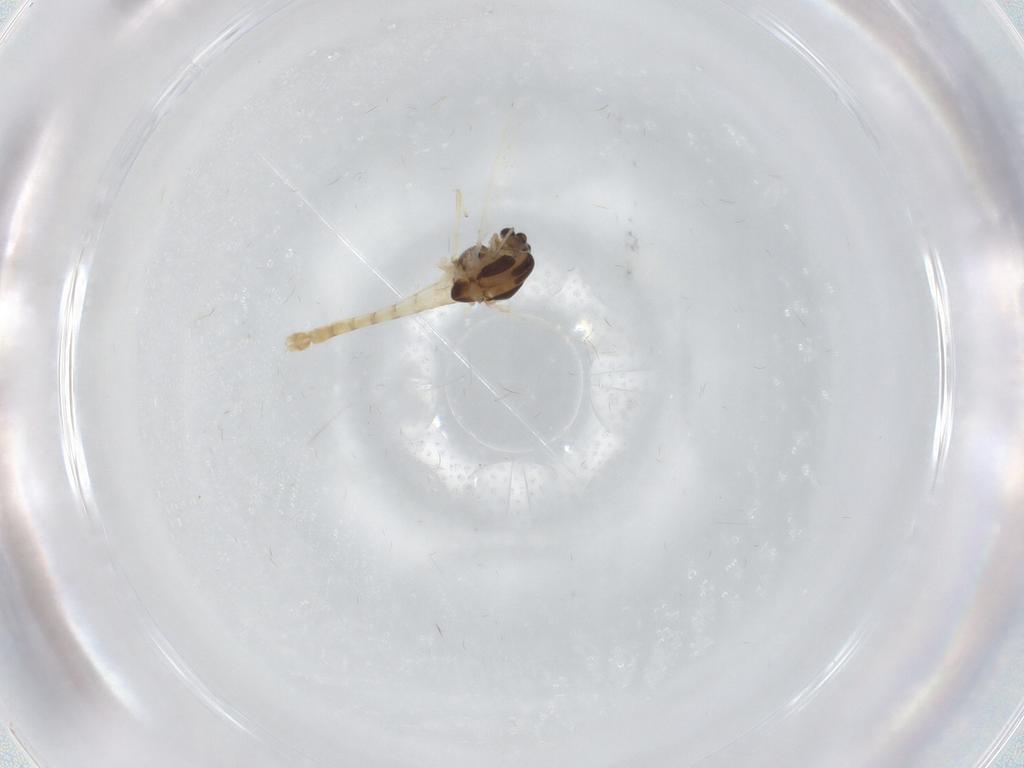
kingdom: Animalia
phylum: Arthropoda
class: Insecta
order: Diptera
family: Chironomidae
